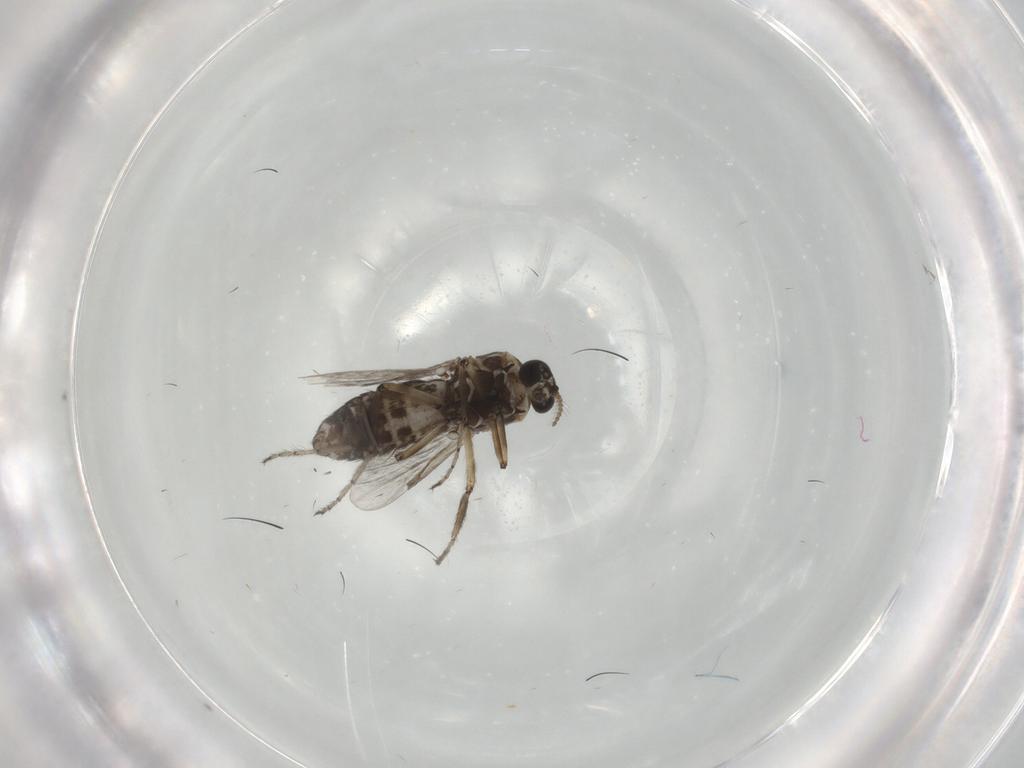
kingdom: Animalia
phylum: Arthropoda
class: Insecta
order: Diptera
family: Ceratopogonidae
